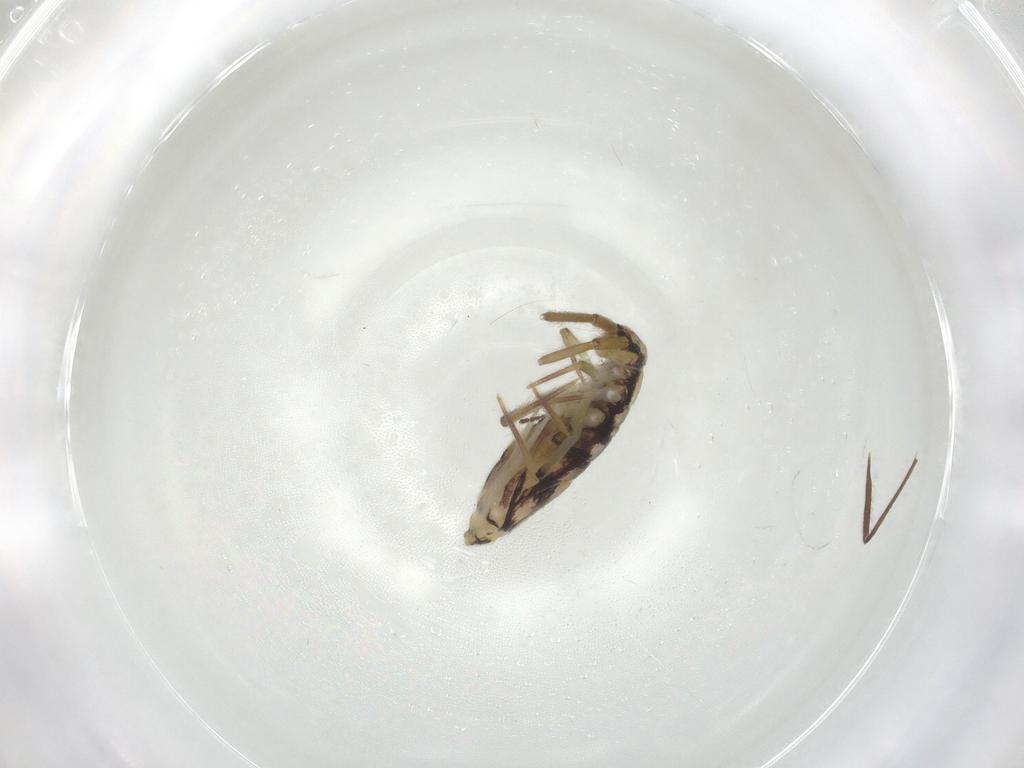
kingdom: Animalia
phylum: Arthropoda
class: Collembola
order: Entomobryomorpha
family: Entomobryidae
